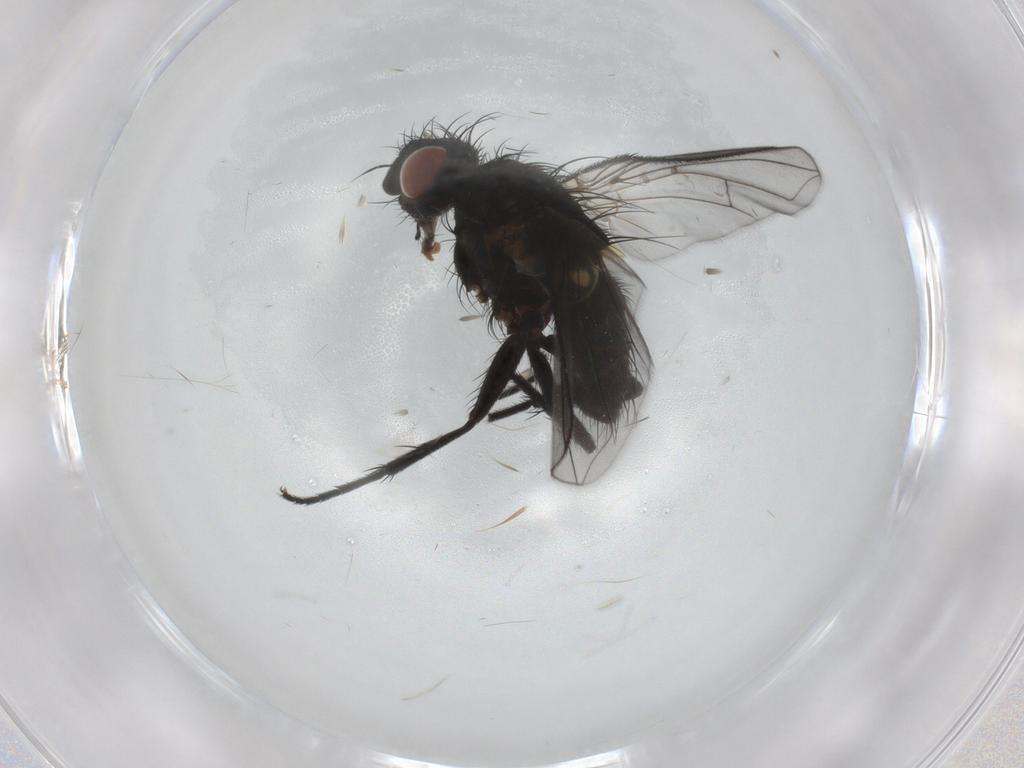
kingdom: Animalia
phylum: Arthropoda
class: Insecta
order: Diptera
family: Tachinidae
